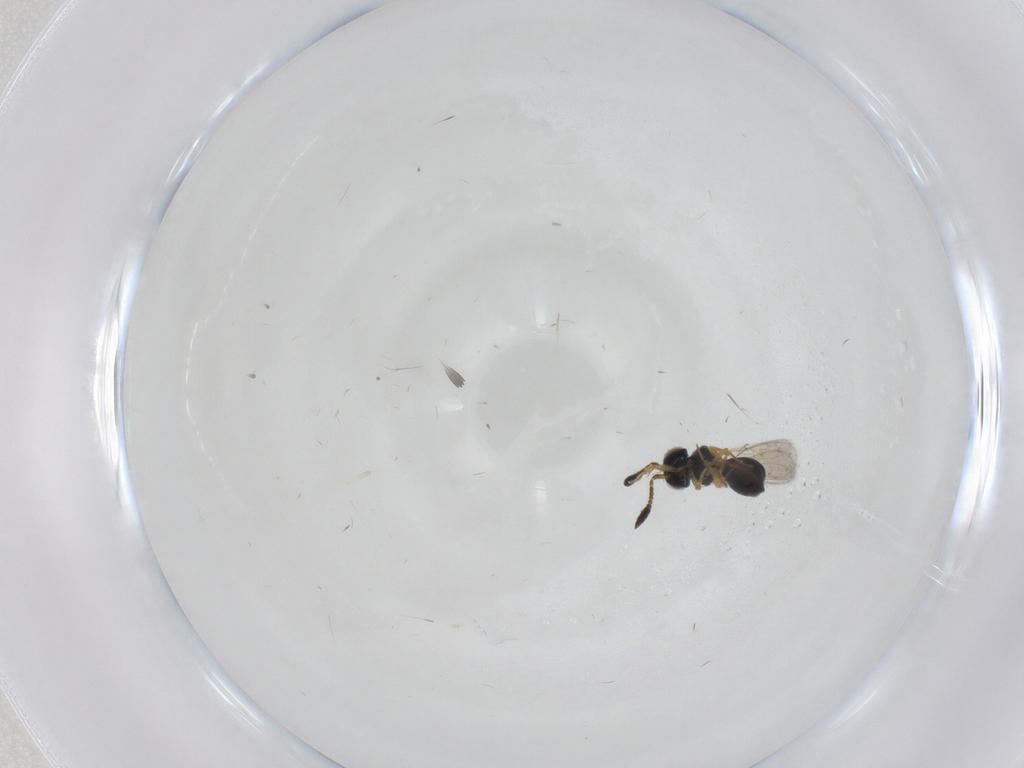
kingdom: Animalia
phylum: Arthropoda
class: Insecta
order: Hymenoptera
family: Scelionidae
